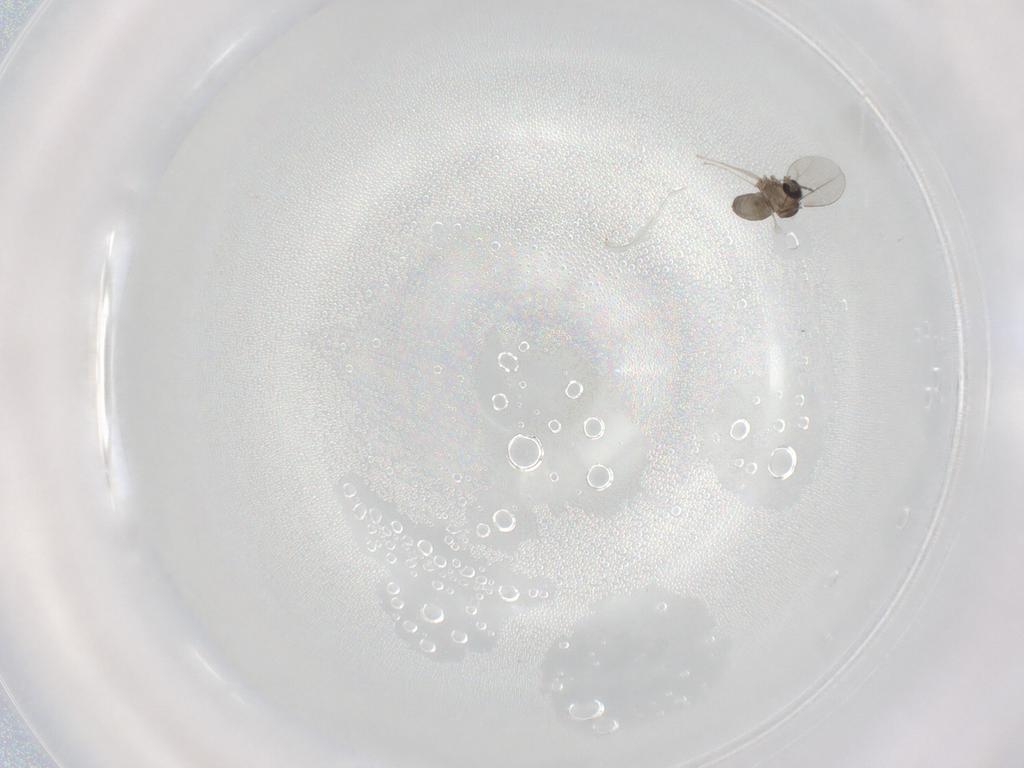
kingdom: Animalia
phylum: Arthropoda
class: Insecta
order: Diptera
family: Cecidomyiidae
